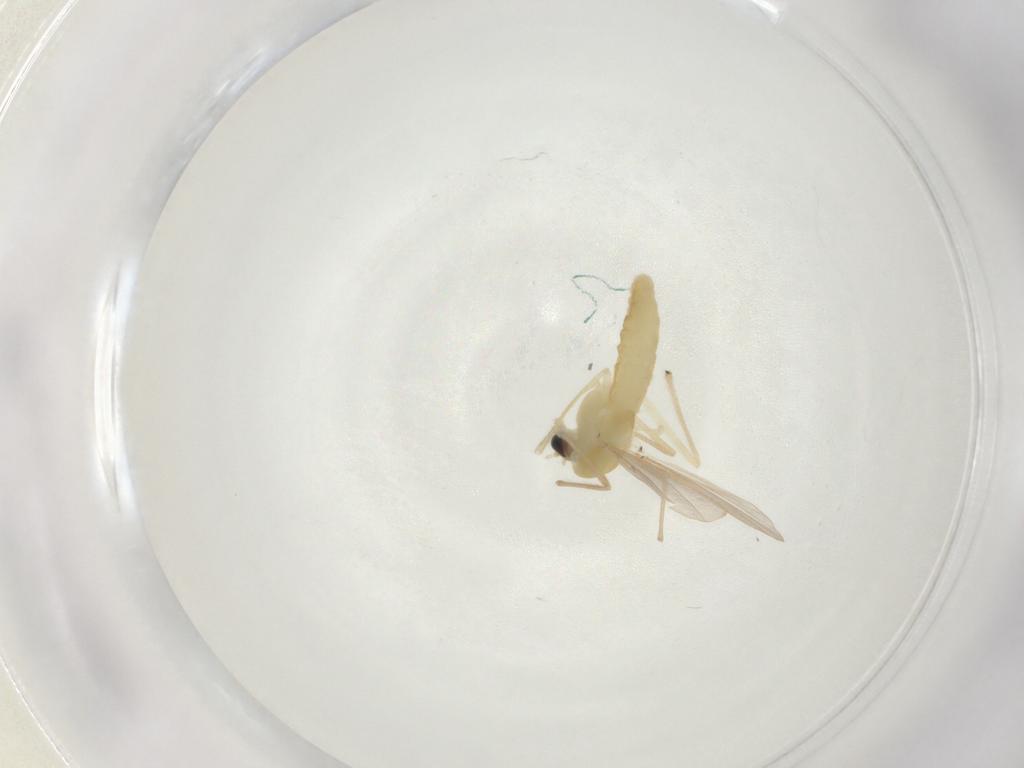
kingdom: Animalia
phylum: Arthropoda
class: Insecta
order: Diptera
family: Chironomidae
